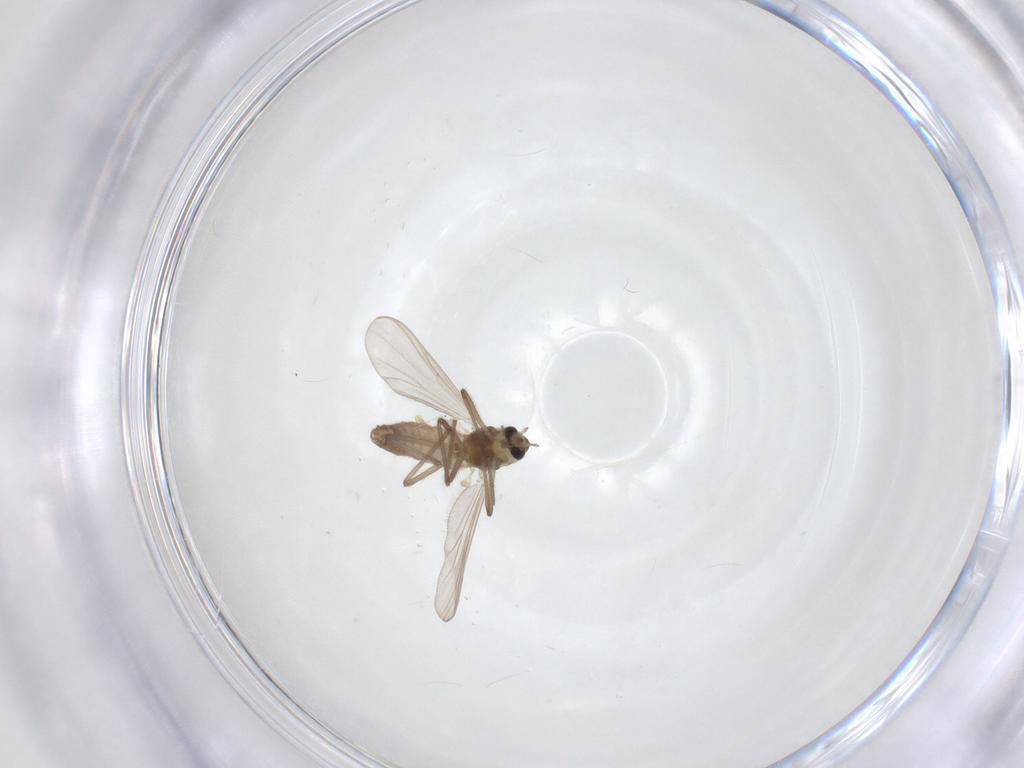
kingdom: Animalia
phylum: Arthropoda
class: Insecta
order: Diptera
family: Chironomidae
